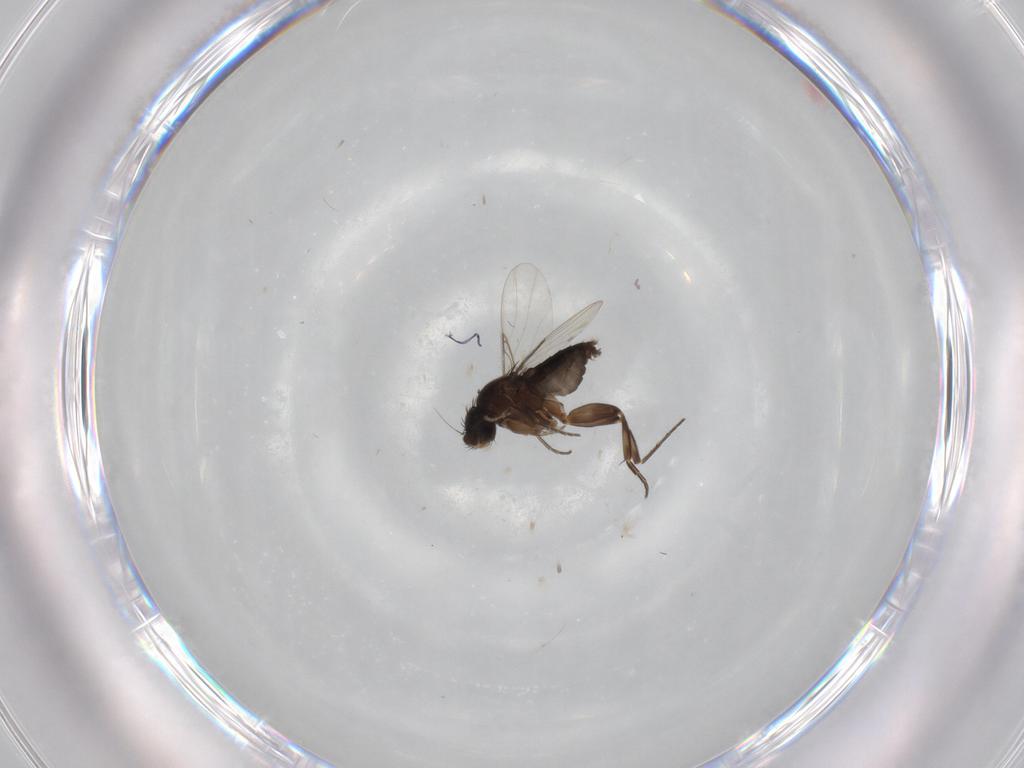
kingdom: Animalia
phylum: Arthropoda
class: Insecta
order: Diptera
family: Phoridae
